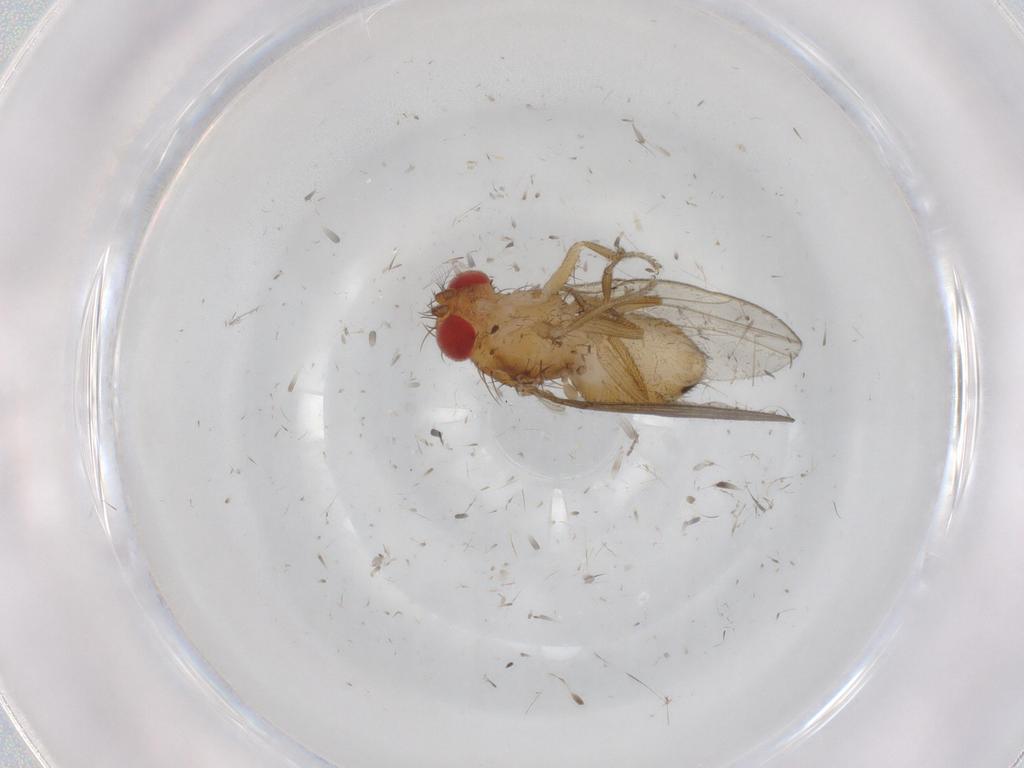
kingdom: Animalia
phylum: Arthropoda
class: Insecta
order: Diptera
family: Drosophilidae
